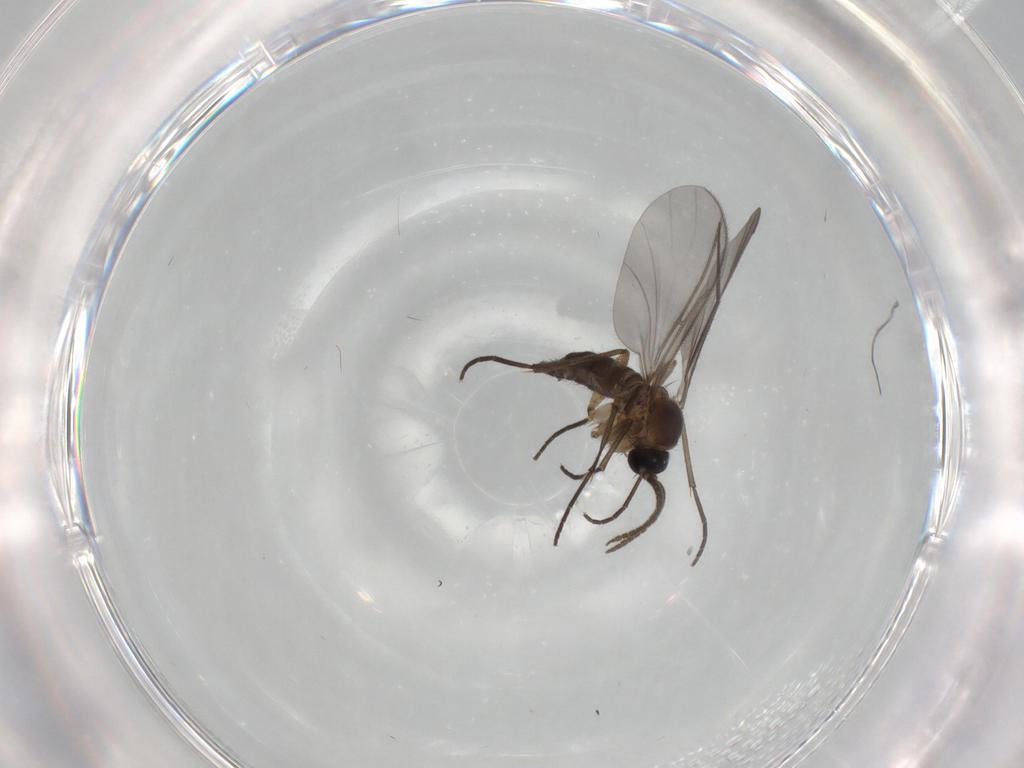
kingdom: Animalia
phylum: Arthropoda
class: Insecta
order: Diptera
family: Dolichopodidae
